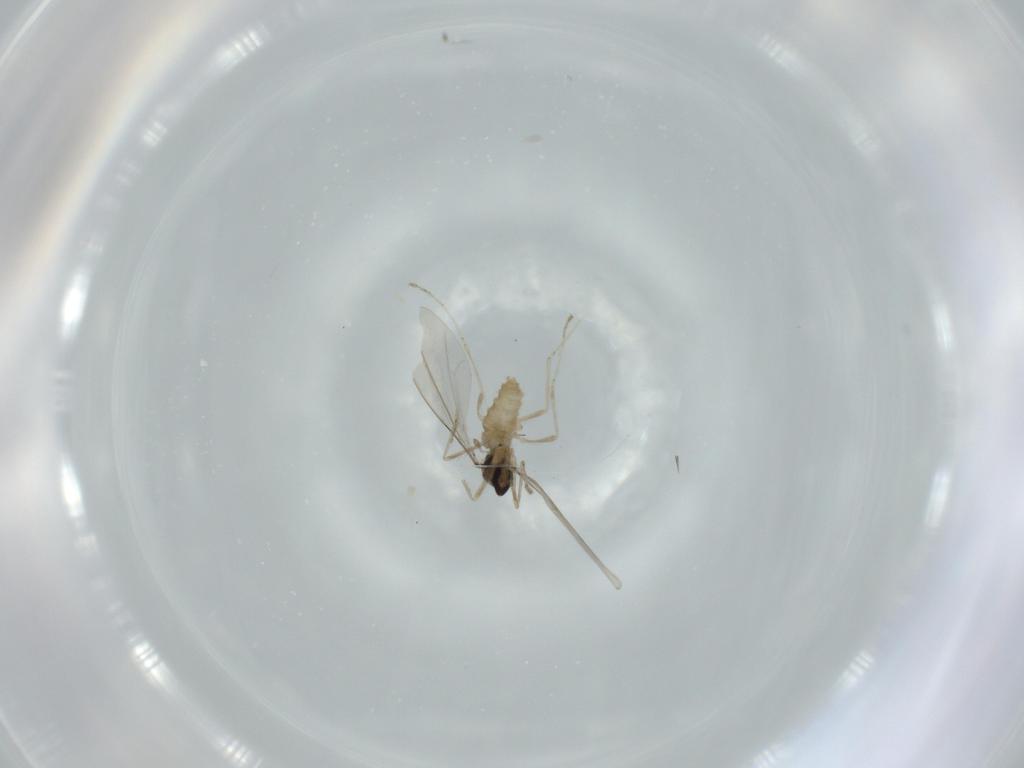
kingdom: Animalia
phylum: Arthropoda
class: Insecta
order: Diptera
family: Cecidomyiidae
